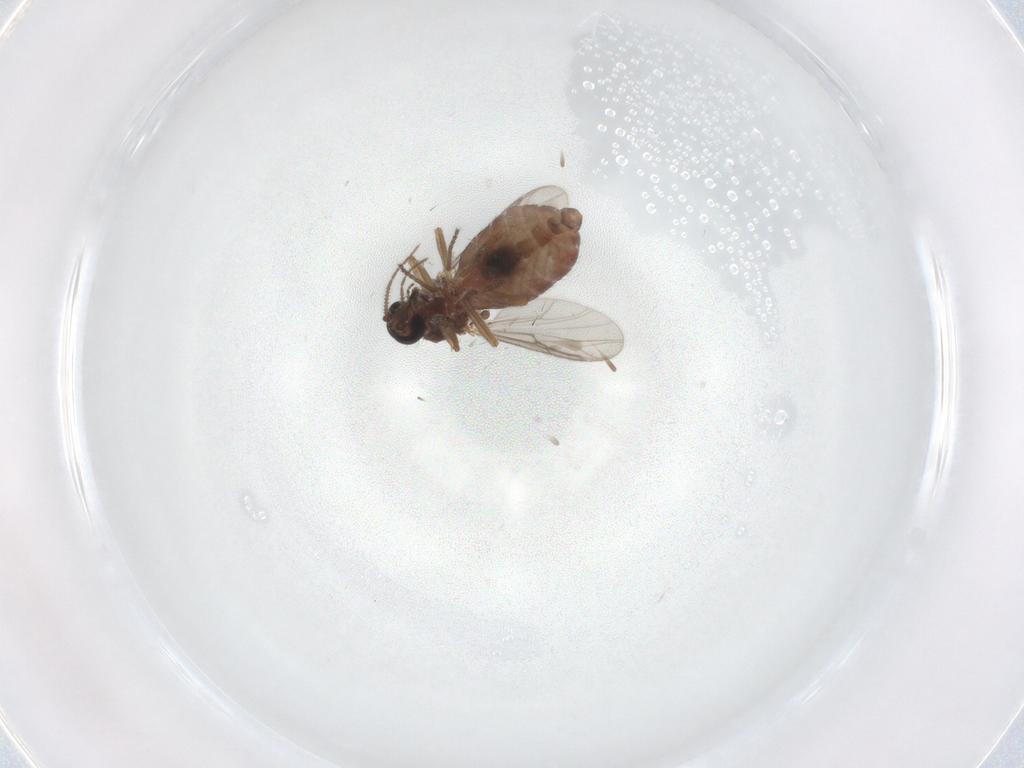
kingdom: Animalia
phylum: Arthropoda
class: Insecta
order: Diptera
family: Ceratopogonidae
